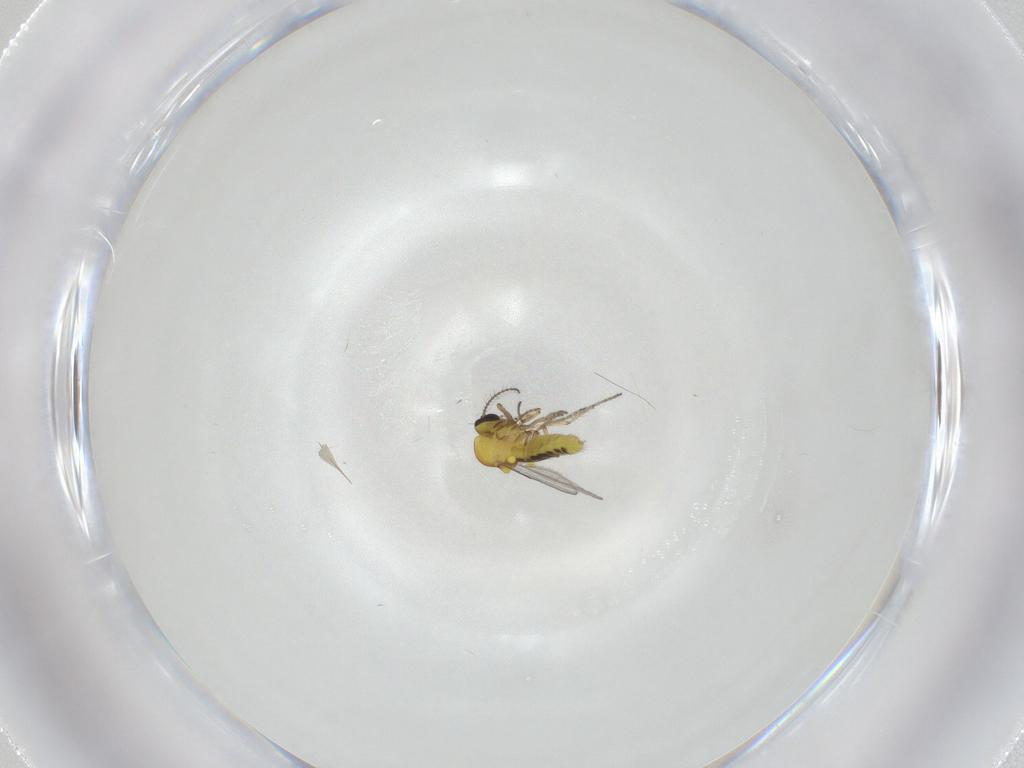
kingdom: Animalia
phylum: Arthropoda
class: Insecta
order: Diptera
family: Ceratopogonidae
